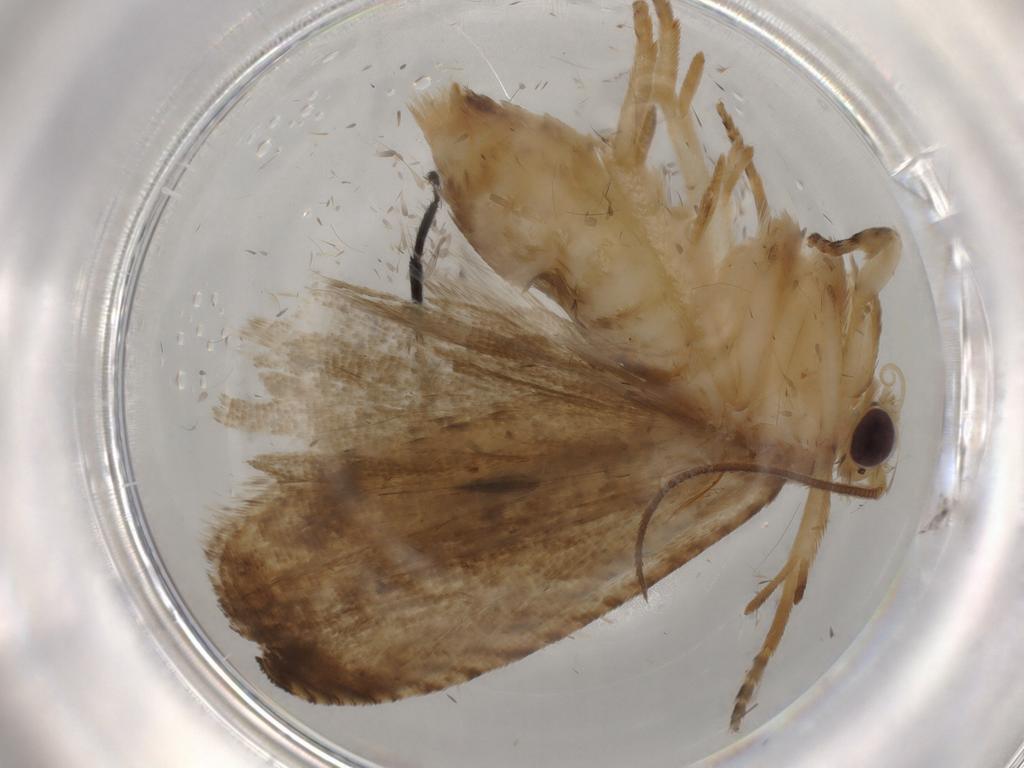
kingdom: Animalia
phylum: Arthropoda
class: Insecta
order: Lepidoptera
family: Tortricidae
